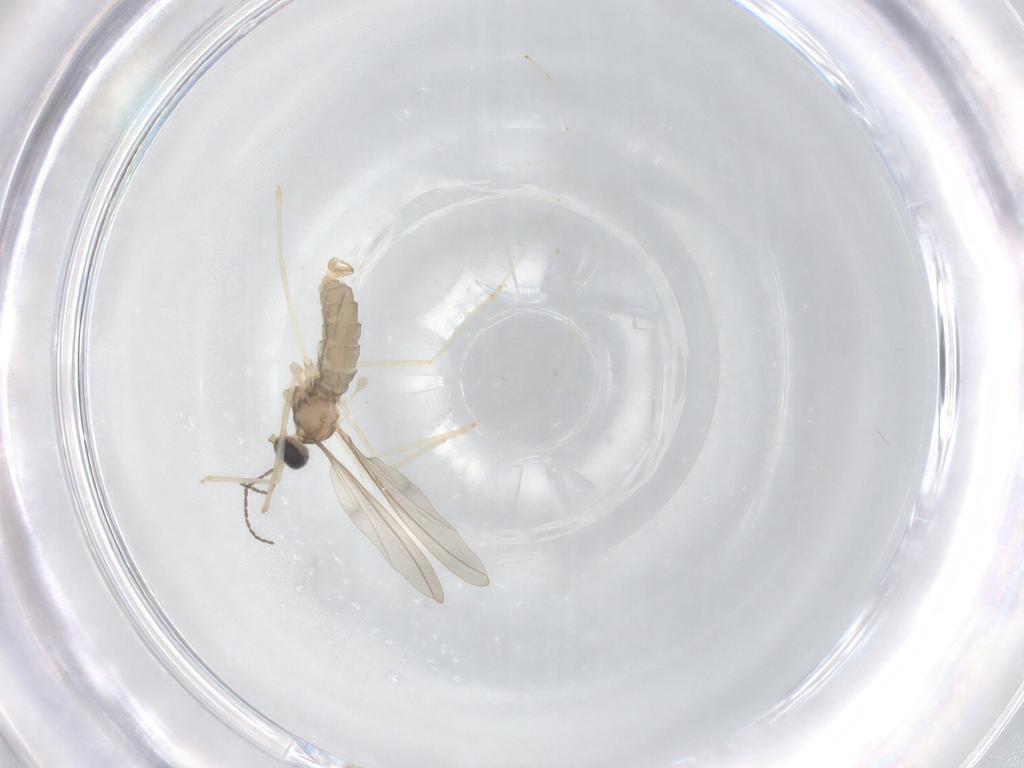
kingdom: Animalia
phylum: Arthropoda
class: Insecta
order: Diptera
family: Cecidomyiidae
